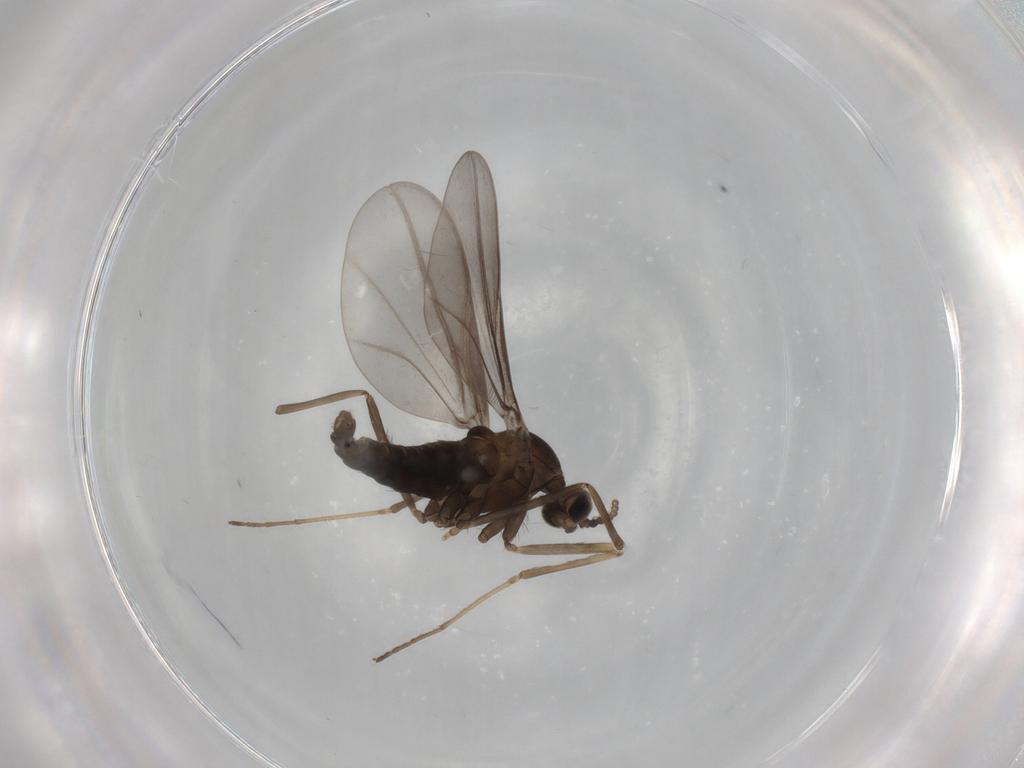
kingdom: Animalia
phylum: Arthropoda
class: Insecta
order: Diptera
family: Cecidomyiidae
